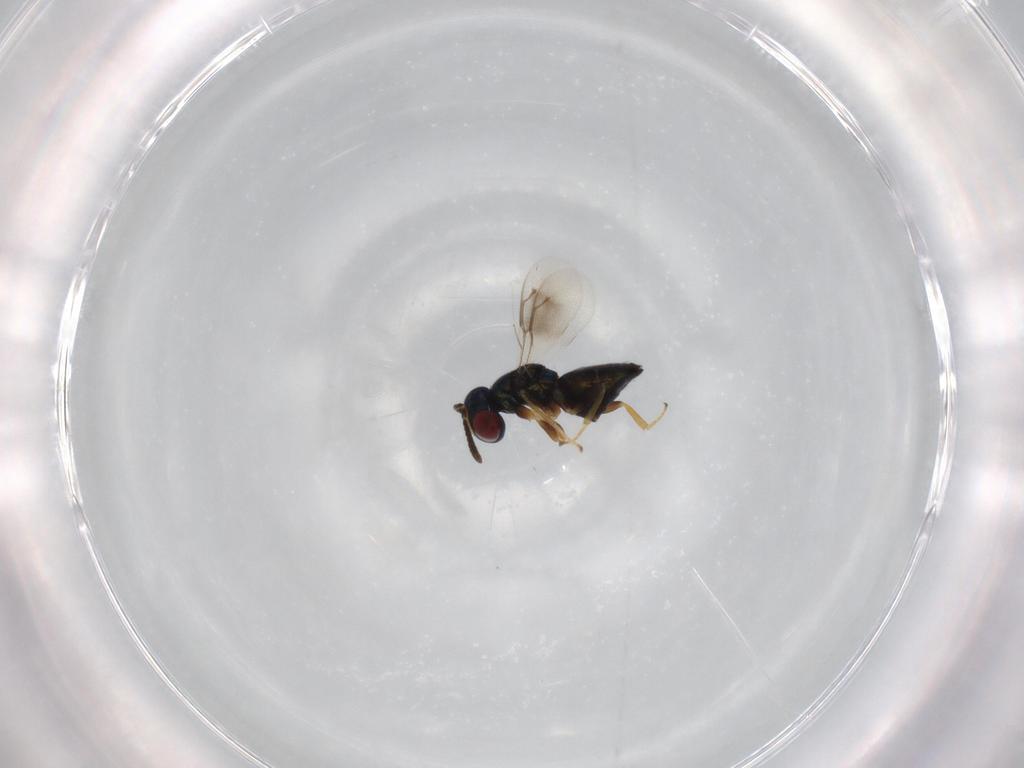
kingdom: Animalia
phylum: Arthropoda
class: Insecta
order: Hymenoptera
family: Pteromalidae
